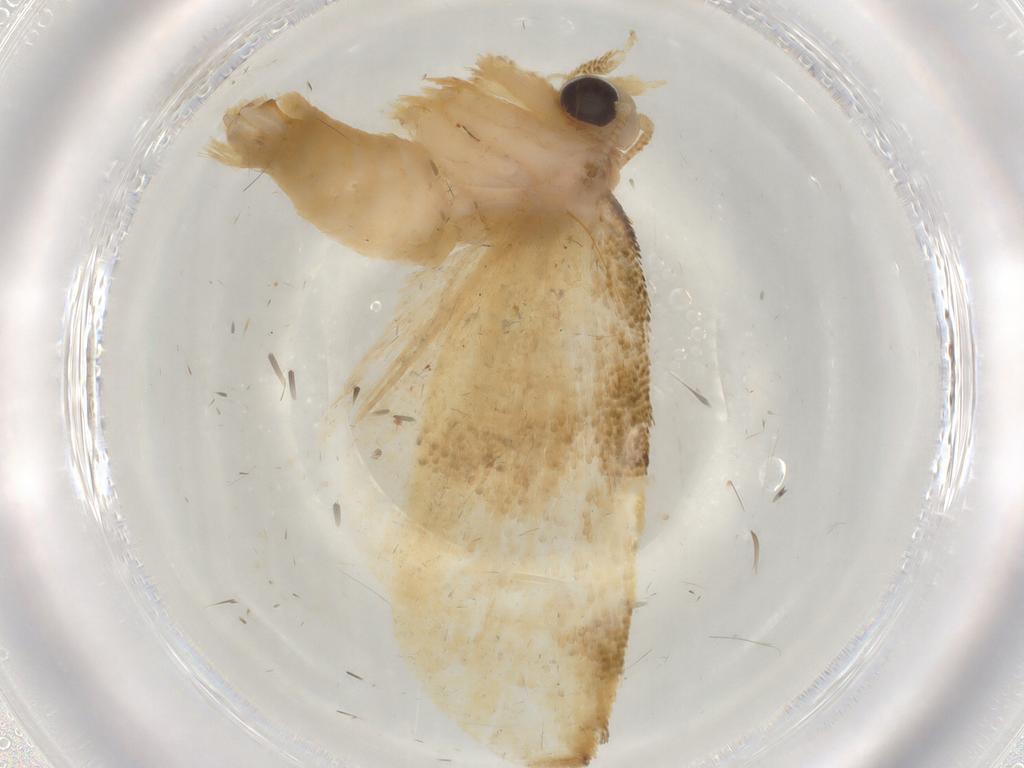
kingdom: Animalia
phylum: Arthropoda
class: Insecta
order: Lepidoptera
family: Tortricidae
